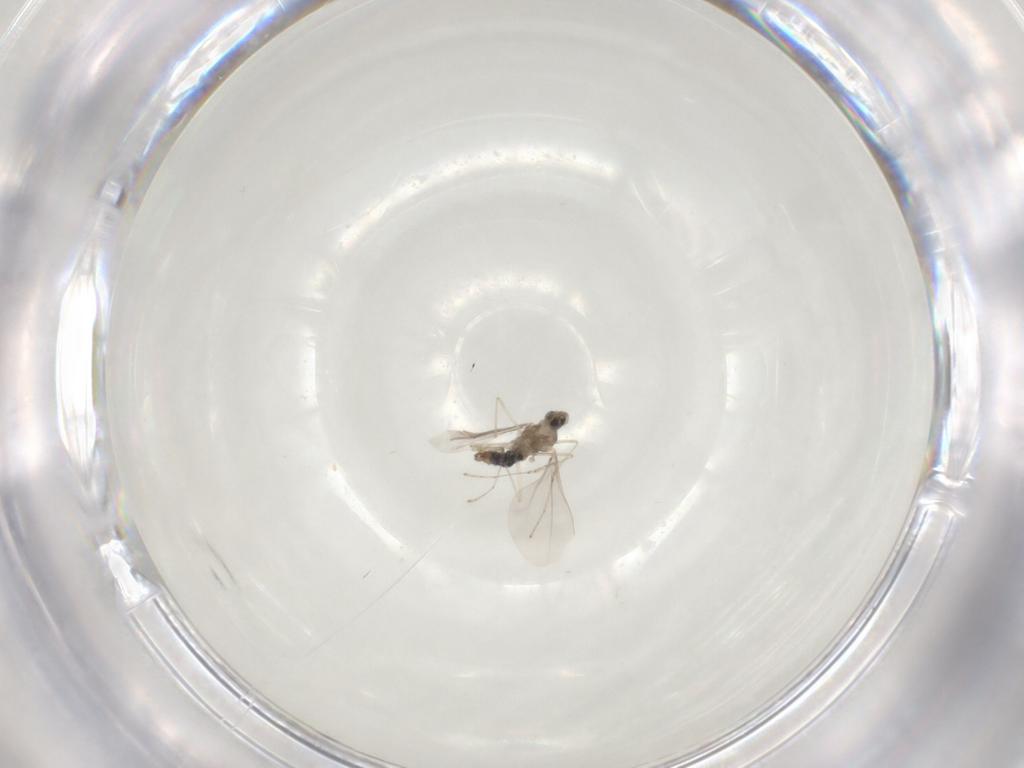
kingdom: Animalia
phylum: Arthropoda
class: Insecta
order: Diptera
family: Cecidomyiidae
